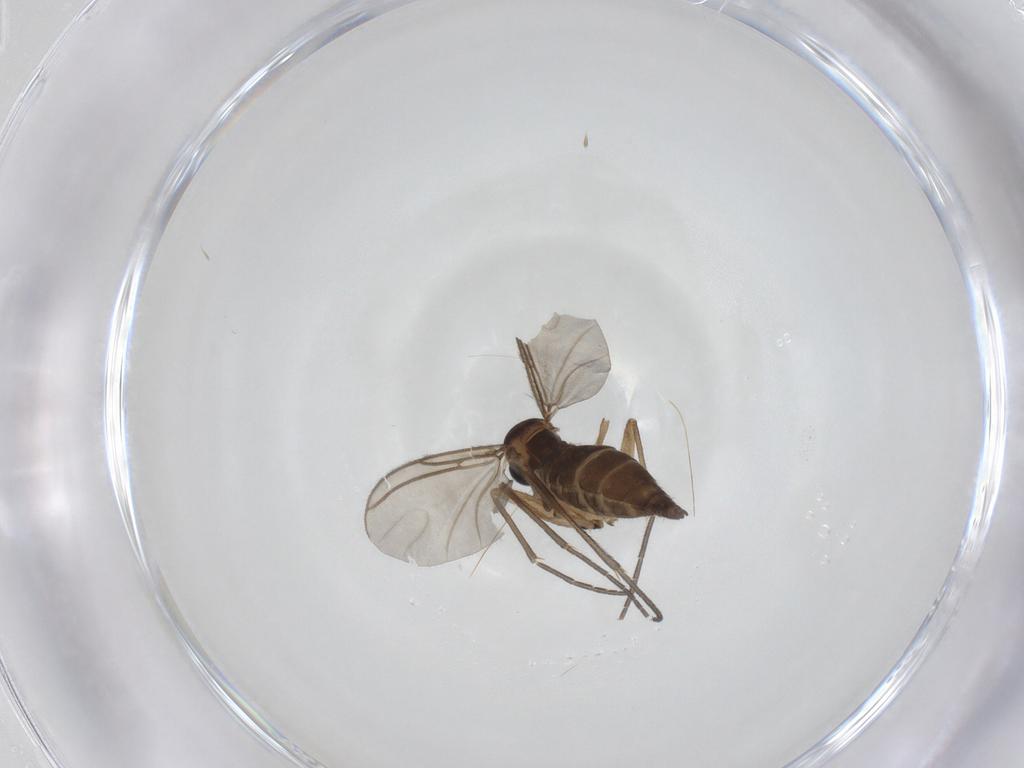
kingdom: Animalia
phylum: Arthropoda
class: Insecta
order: Diptera
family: Sciaridae
